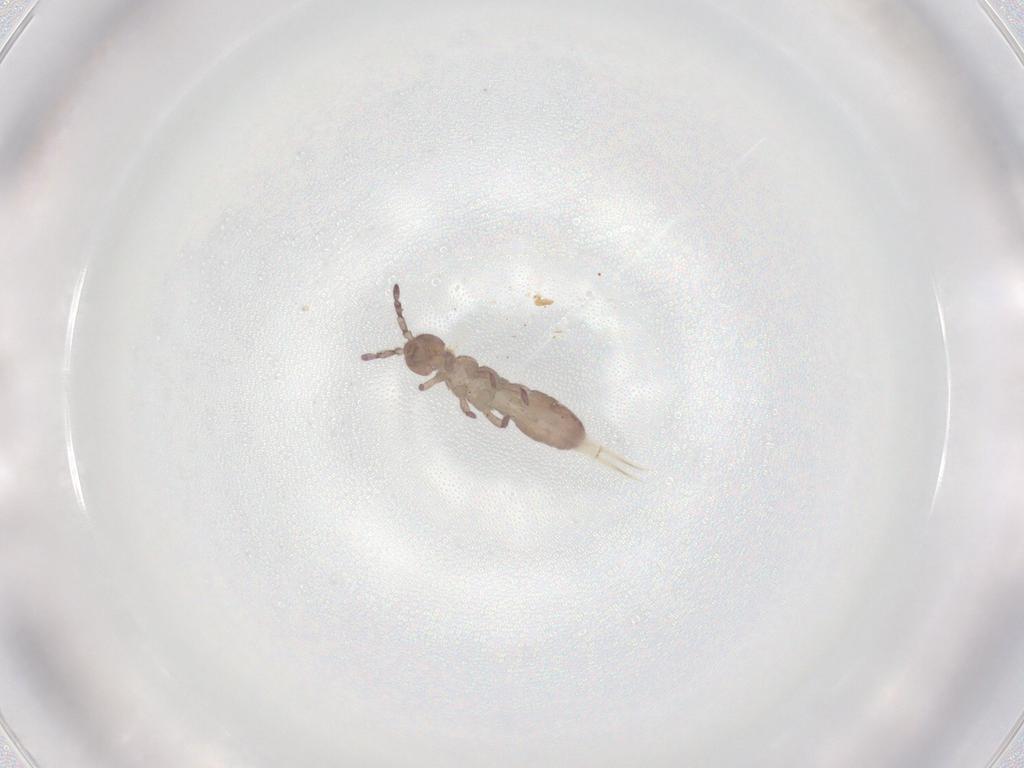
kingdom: Animalia
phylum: Arthropoda
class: Collembola
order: Entomobryomorpha
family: Isotomidae
